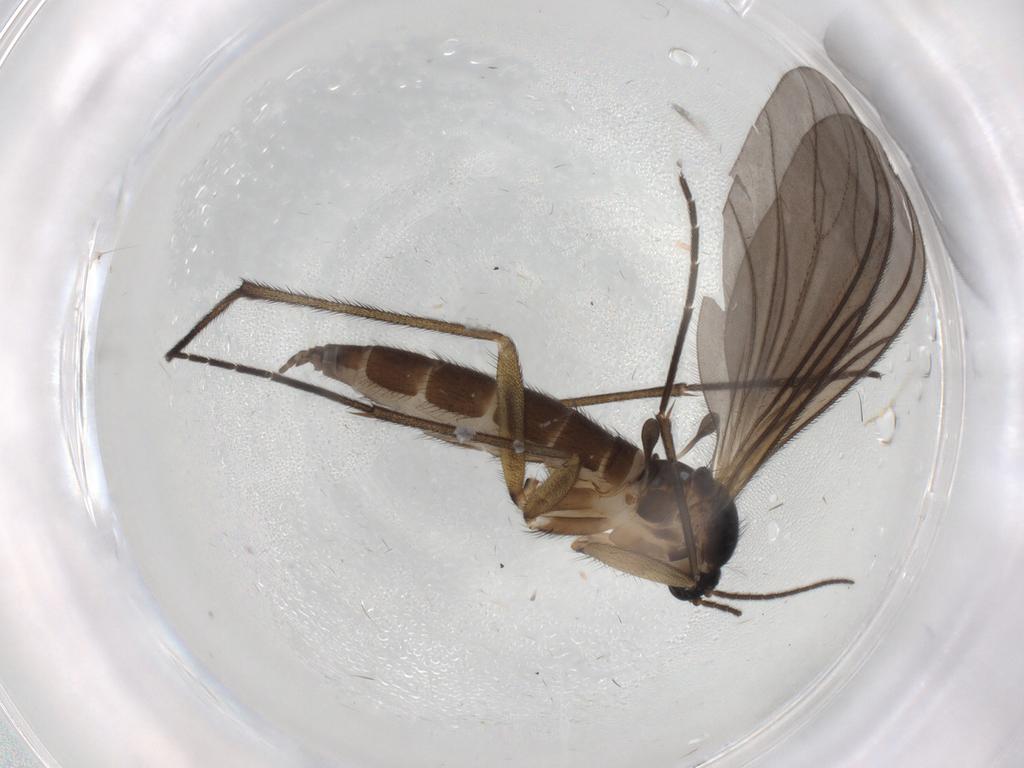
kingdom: Animalia
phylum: Arthropoda
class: Insecta
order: Diptera
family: Sciaridae
